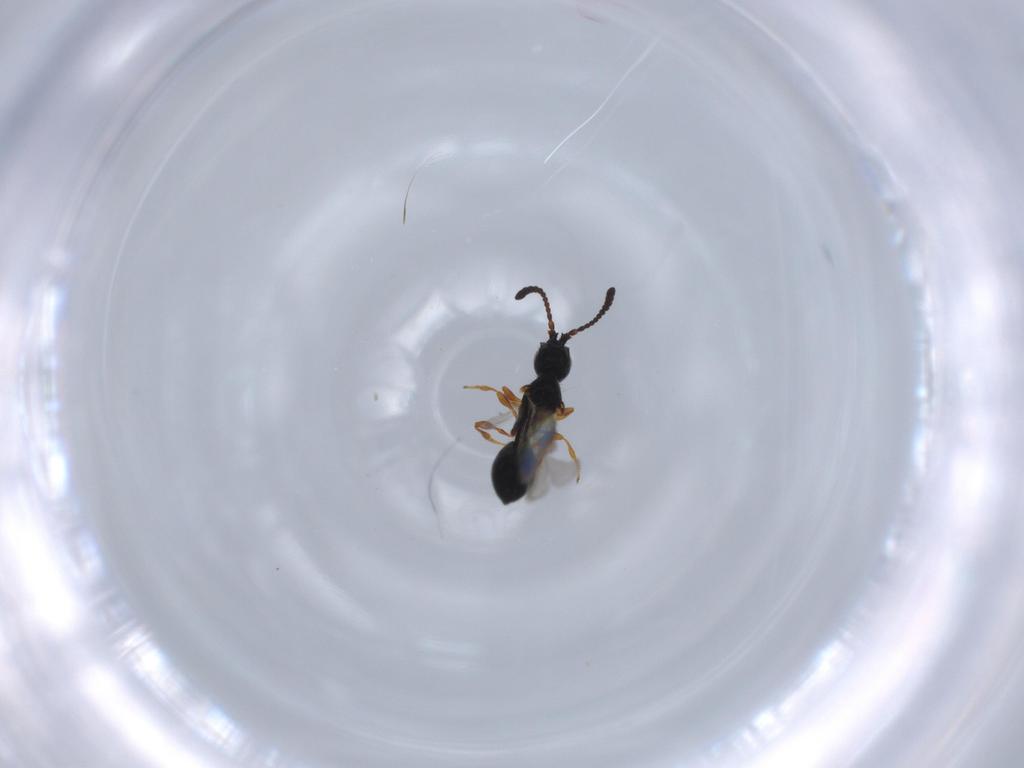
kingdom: Animalia
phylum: Arthropoda
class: Insecta
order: Hymenoptera
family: Diapriidae
